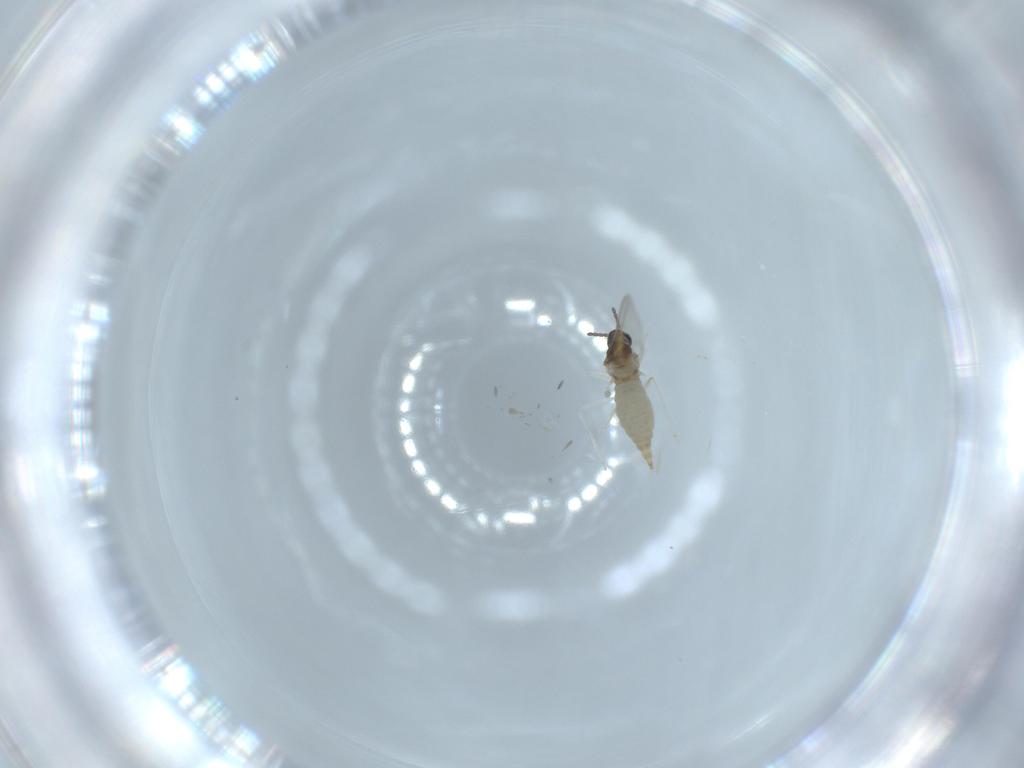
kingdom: Animalia
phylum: Arthropoda
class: Insecta
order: Diptera
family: Cecidomyiidae
